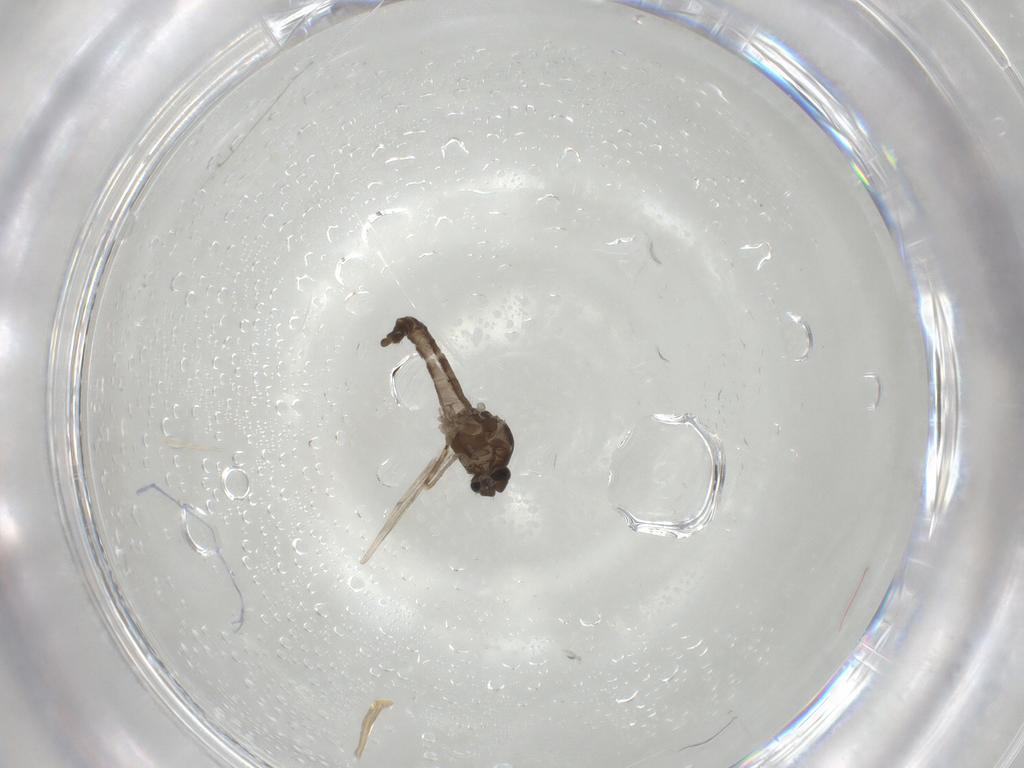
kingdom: Animalia
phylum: Arthropoda
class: Insecta
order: Diptera
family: Ceratopogonidae
